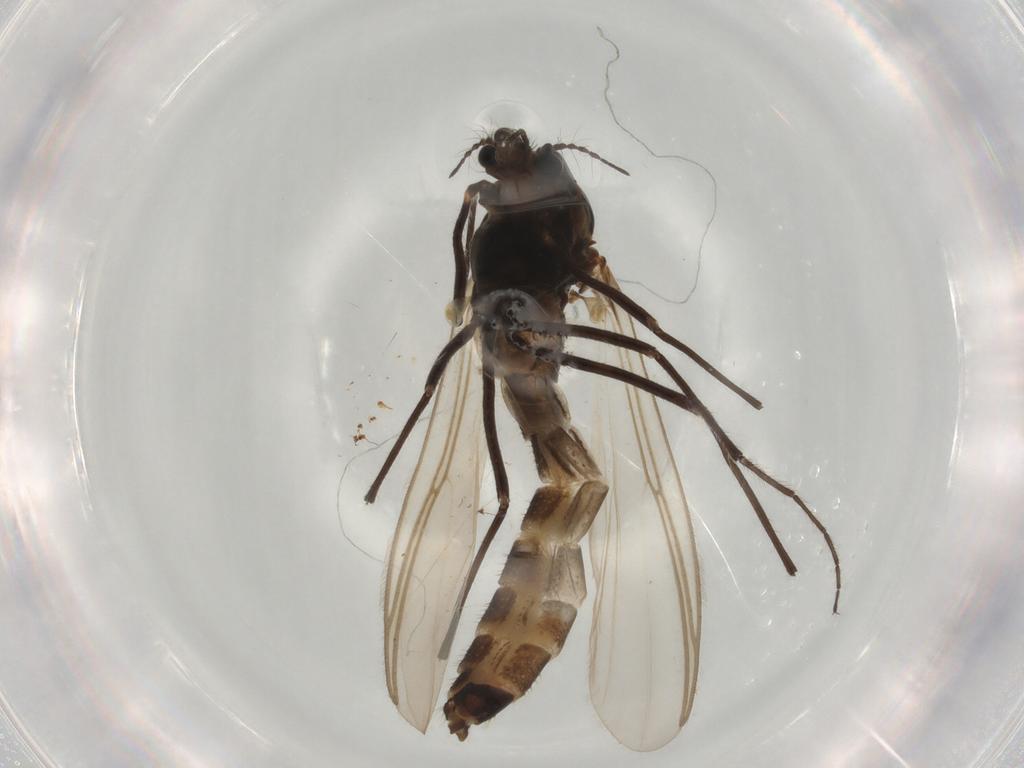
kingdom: Animalia
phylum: Arthropoda
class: Insecta
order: Diptera
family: Chironomidae
